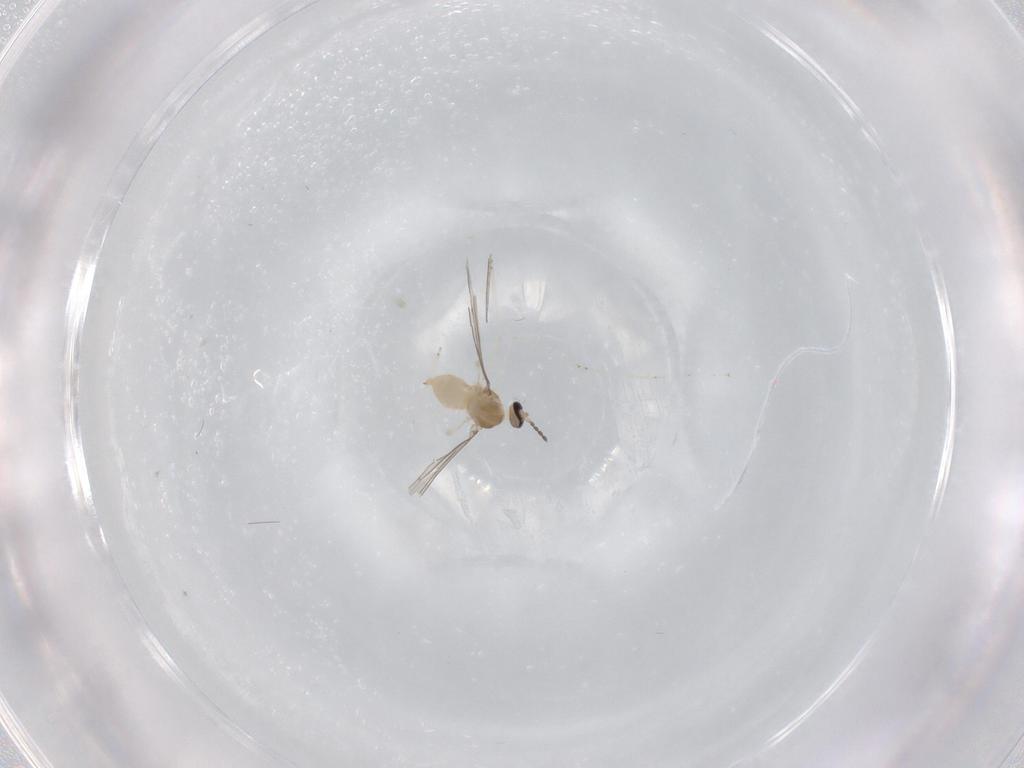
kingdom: Animalia
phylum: Arthropoda
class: Insecta
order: Diptera
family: Cecidomyiidae
